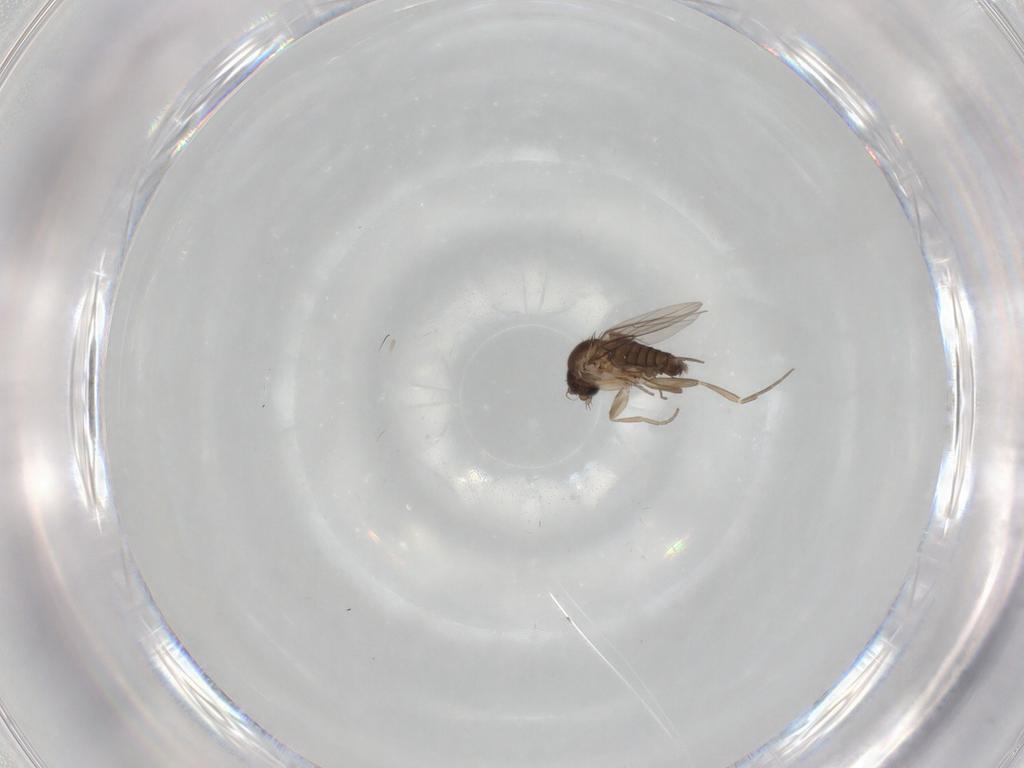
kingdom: Animalia
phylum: Arthropoda
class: Insecta
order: Diptera
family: Phoridae
